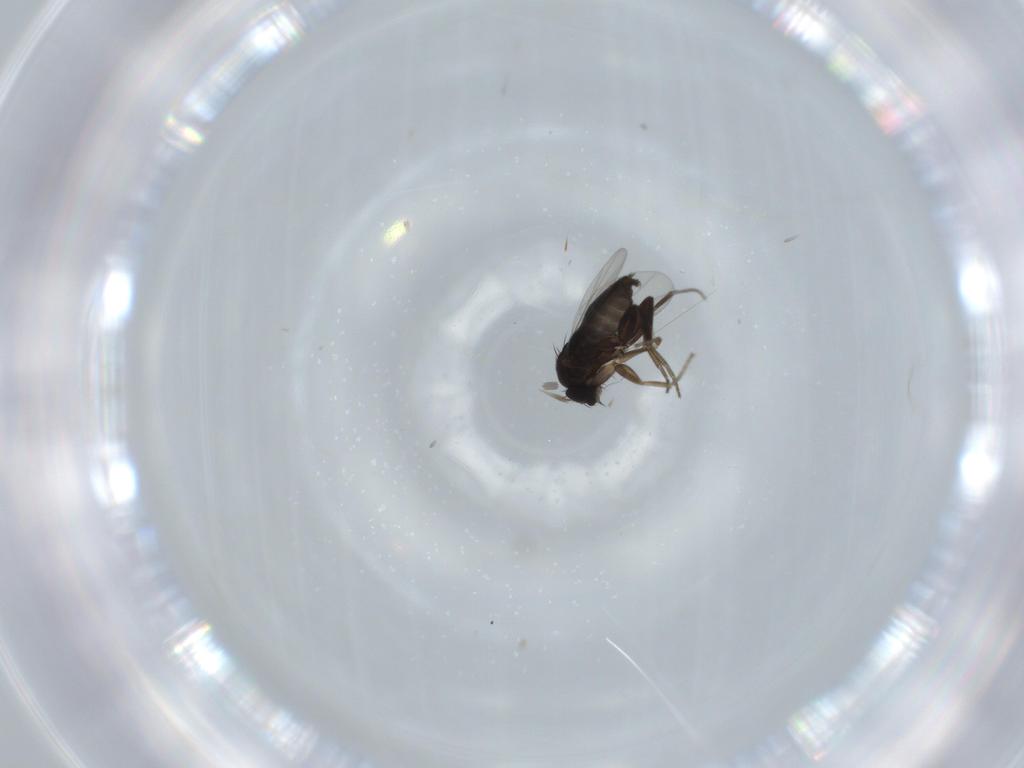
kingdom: Animalia
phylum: Arthropoda
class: Insecta
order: Diptera
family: Phoridae
